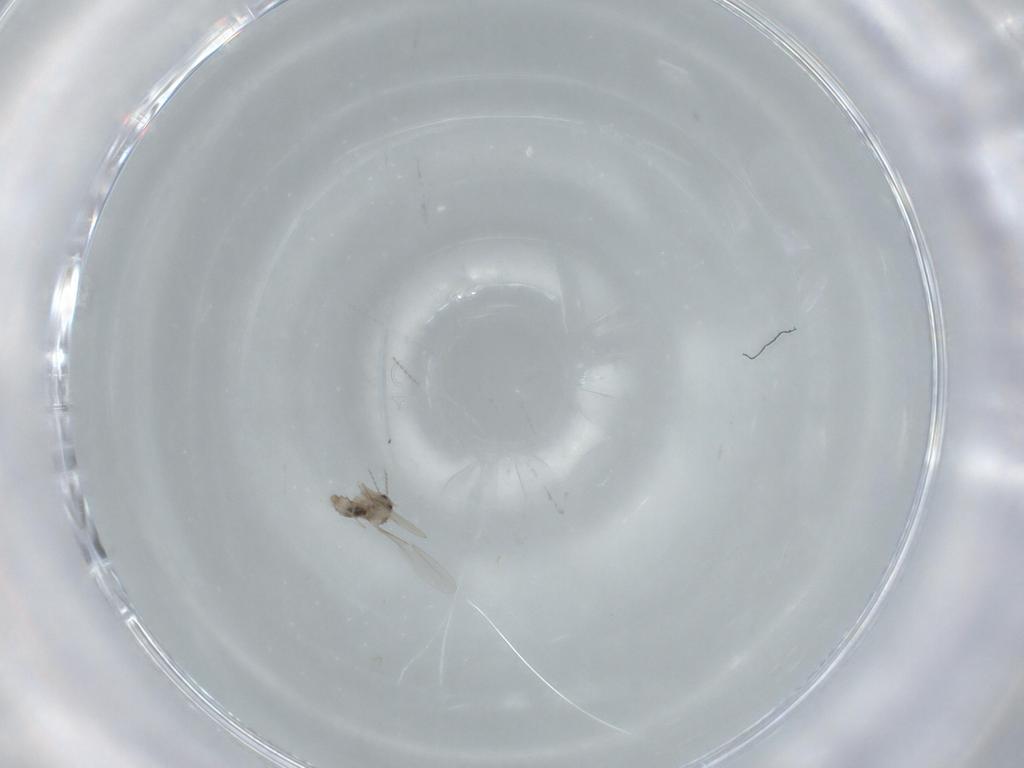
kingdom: Animalia
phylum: Arthropoda
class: Insecta
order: Diptera
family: Cecidomyiidae
